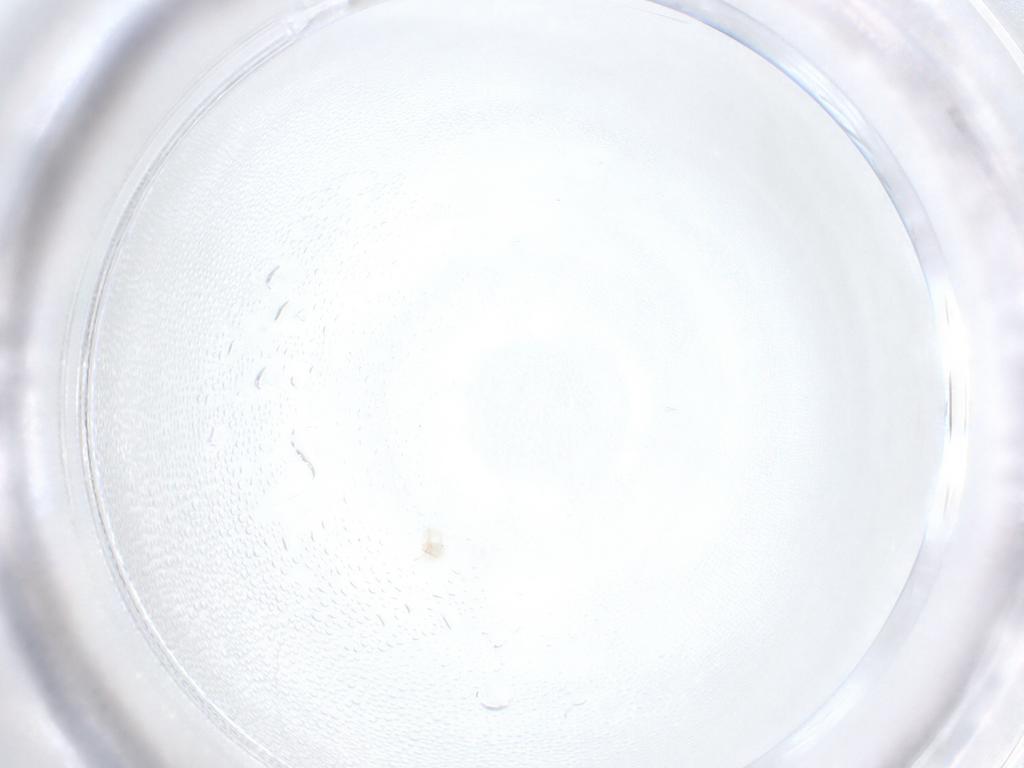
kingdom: Animalia
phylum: Arthropoda
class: Arachnida
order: Trombidiformes
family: Anystidae
